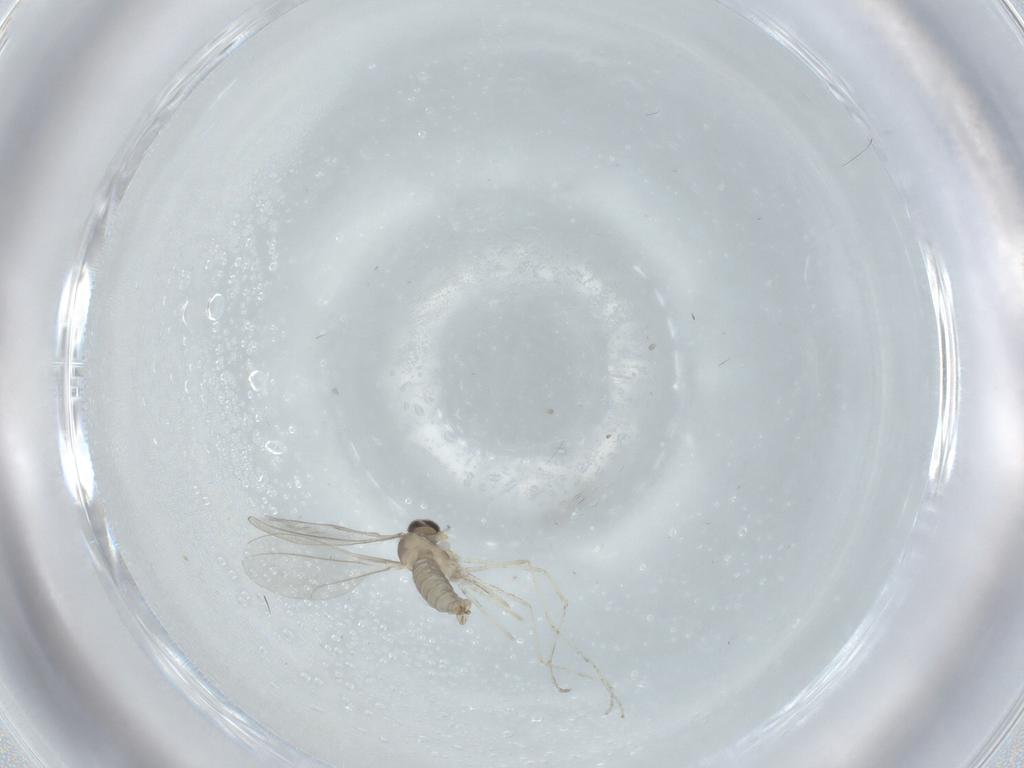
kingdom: Animalia
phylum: Arthropoda
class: Insecta
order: Diptera
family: Cecidomyiidae
